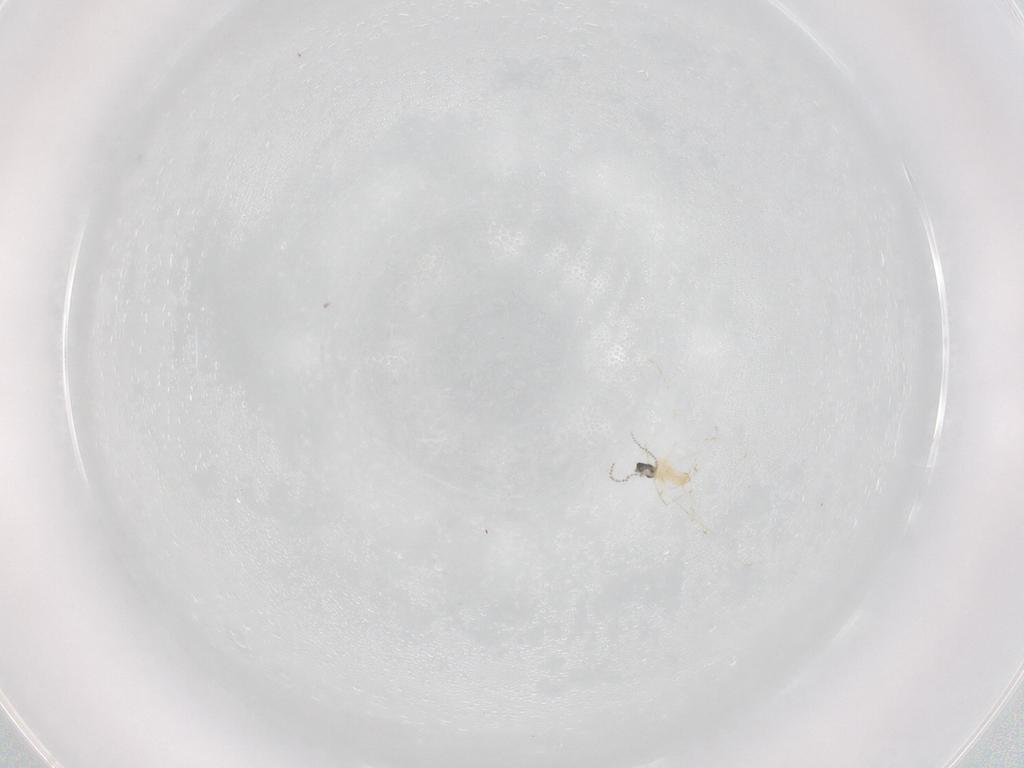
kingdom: Animalia
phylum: Arthropoda
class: Insecta
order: Diptera
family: Cecidomyiidae
